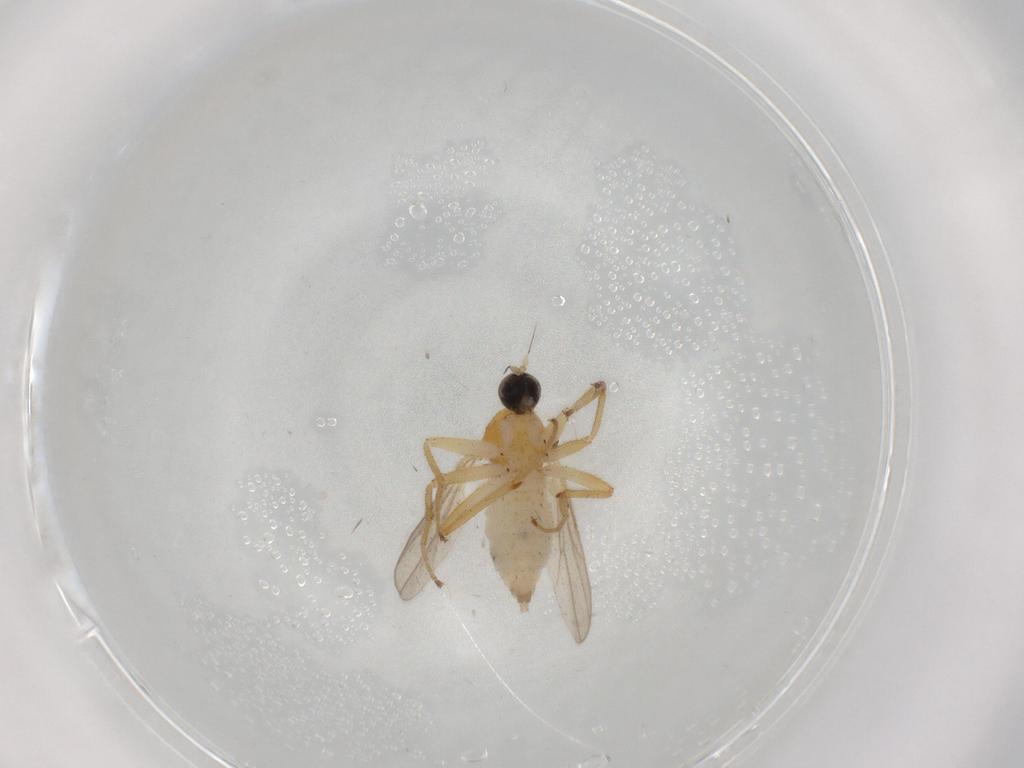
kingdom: Animalia
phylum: Arthropoda
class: Insecta
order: Diptera
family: Hybotidae
